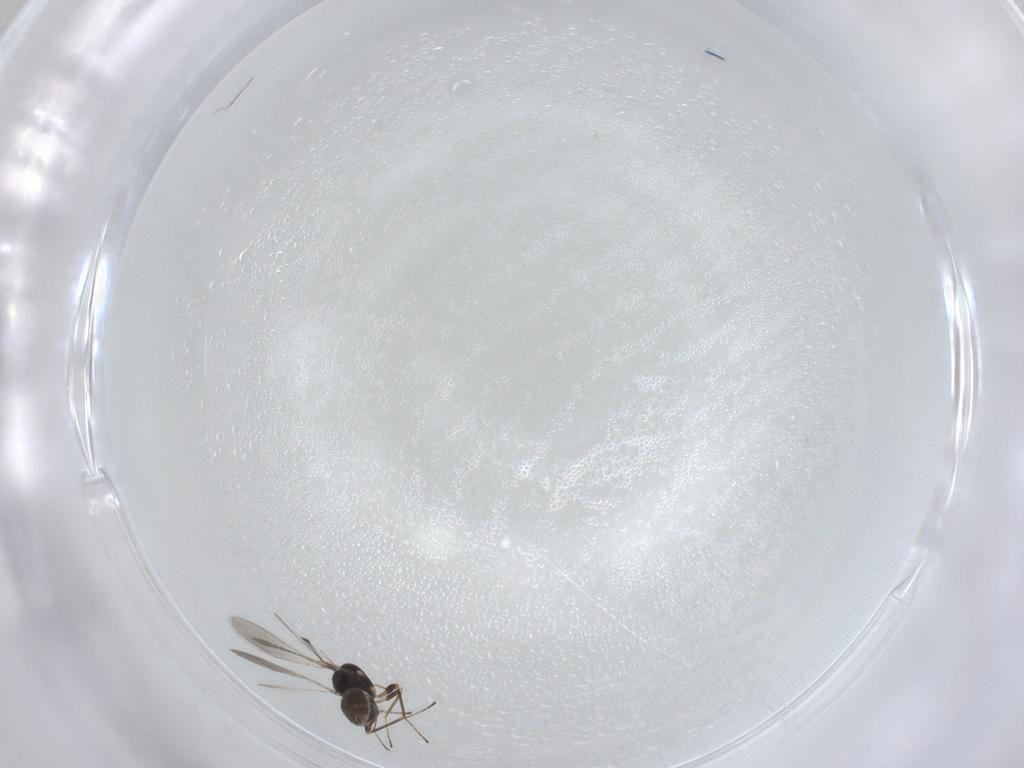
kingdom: Animalia
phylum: Arthropoda
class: Insecta
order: Hymenoptera
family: Mymaridae
